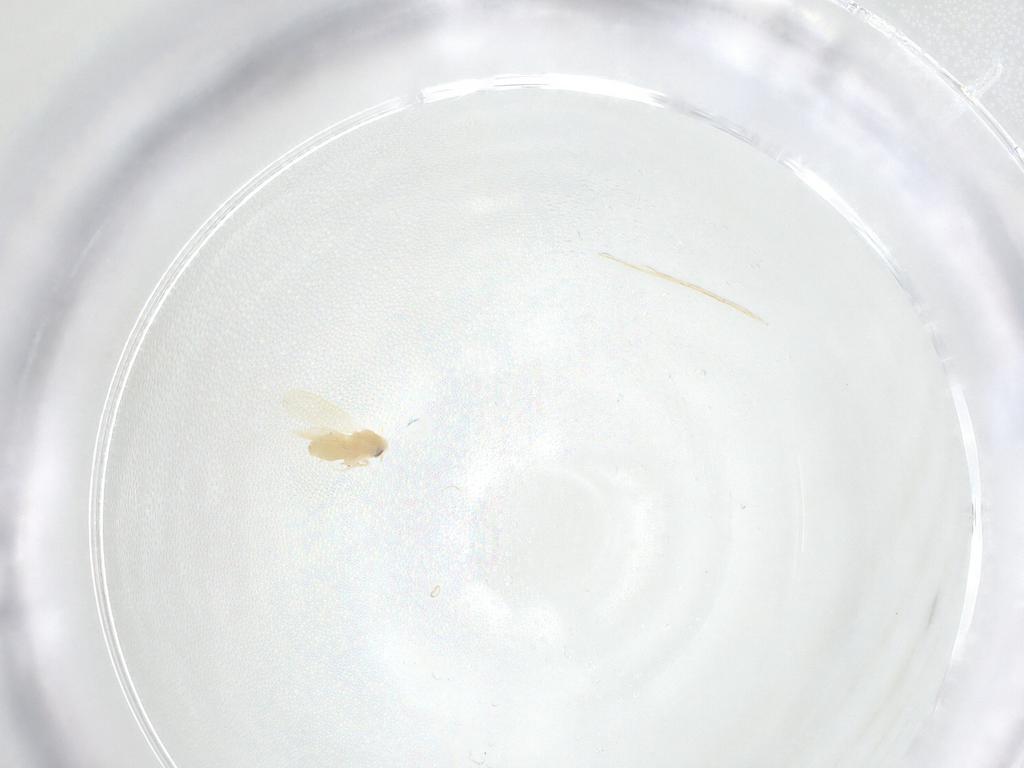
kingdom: Animalia
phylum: Arthropoda
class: Insecta
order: Hemiptera
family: Aleyrodidae
